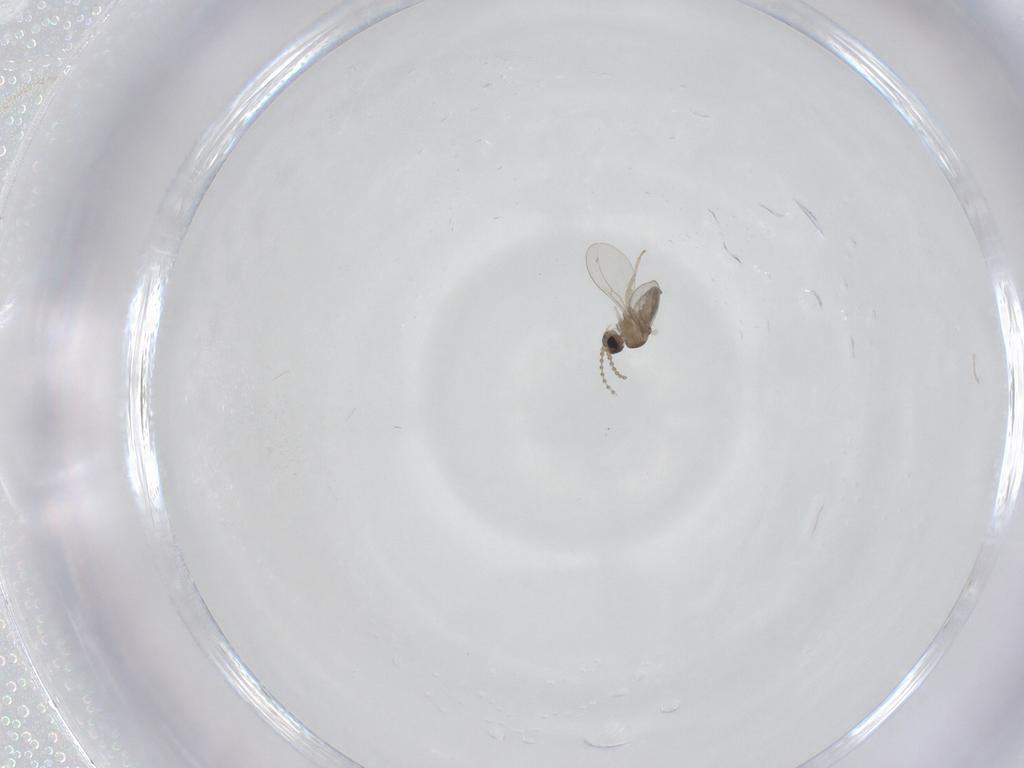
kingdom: Animalia
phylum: Arthropoda
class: Insecta
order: Diptera
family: Cecidomyiidae
